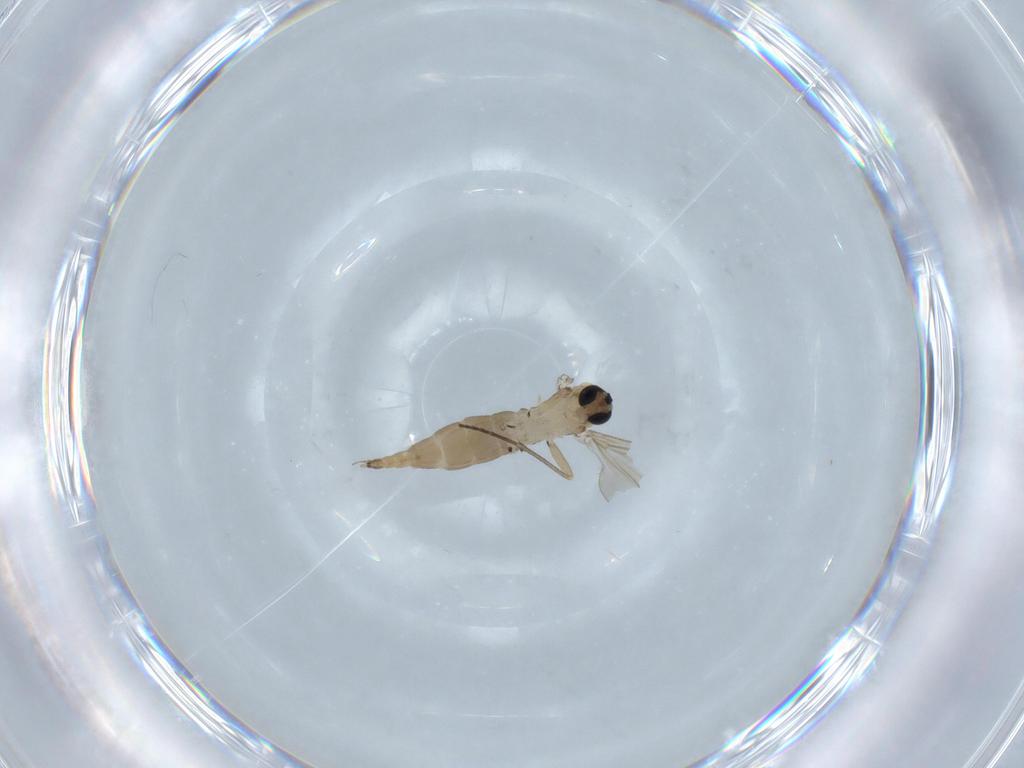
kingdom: Animalia
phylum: Arthropoda
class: Insecta
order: Diptera
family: Sciaridae
